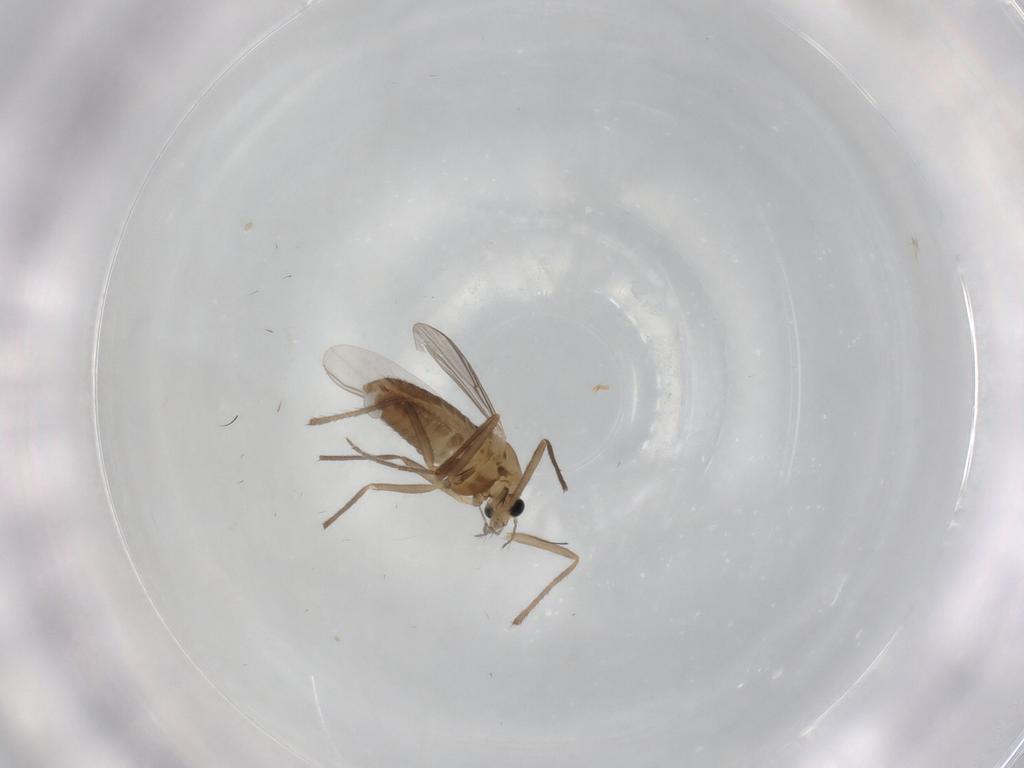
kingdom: Animalia
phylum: Arthropoda
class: Insecta
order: Diptera
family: Chironomidae
